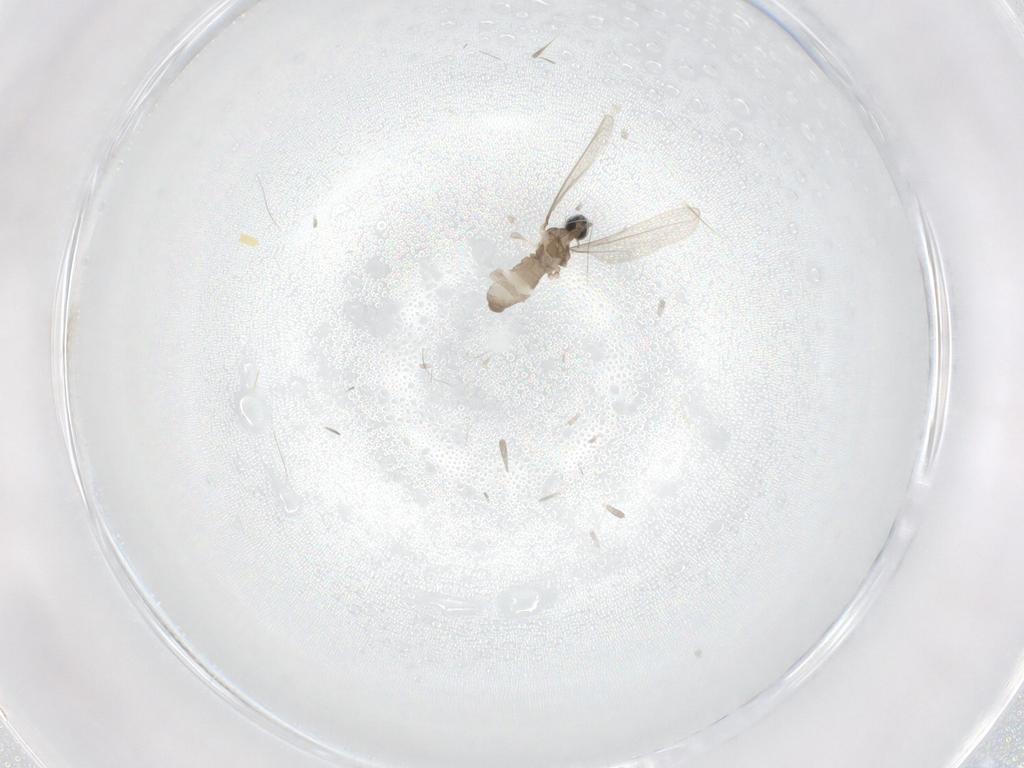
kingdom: Animalia
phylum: Arthropoda
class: Insecta
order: Diptera
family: Cecidomyiidae
